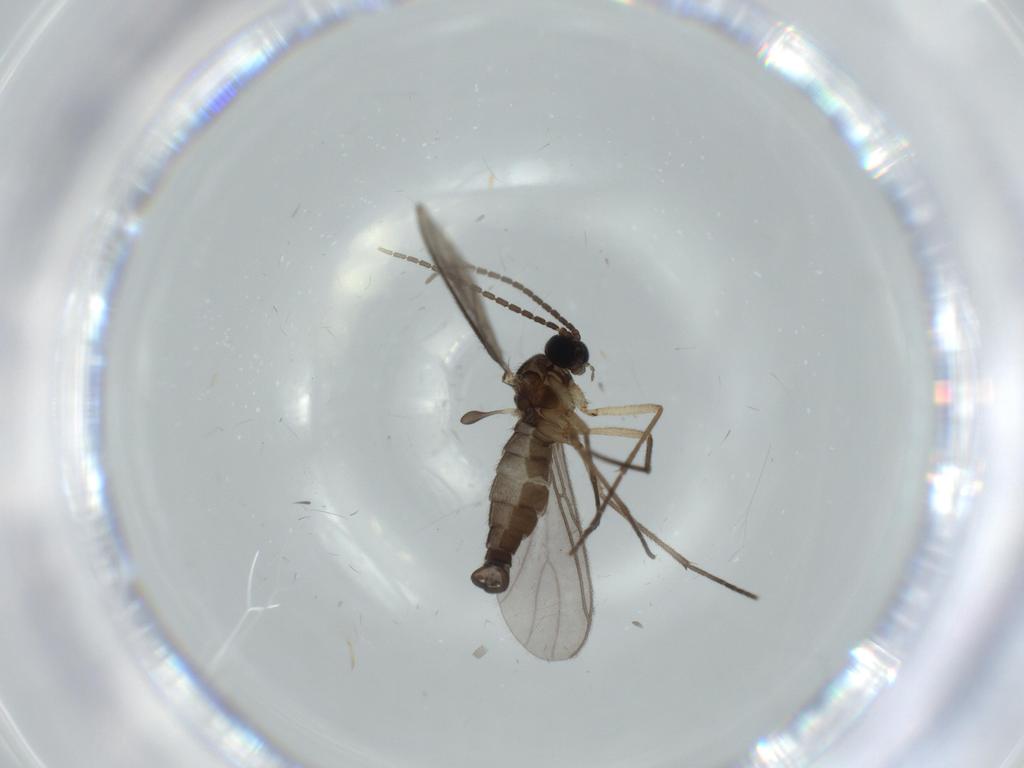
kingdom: Animalia
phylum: Arthropoda
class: Insecta
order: Diptera
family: Sciaridae
